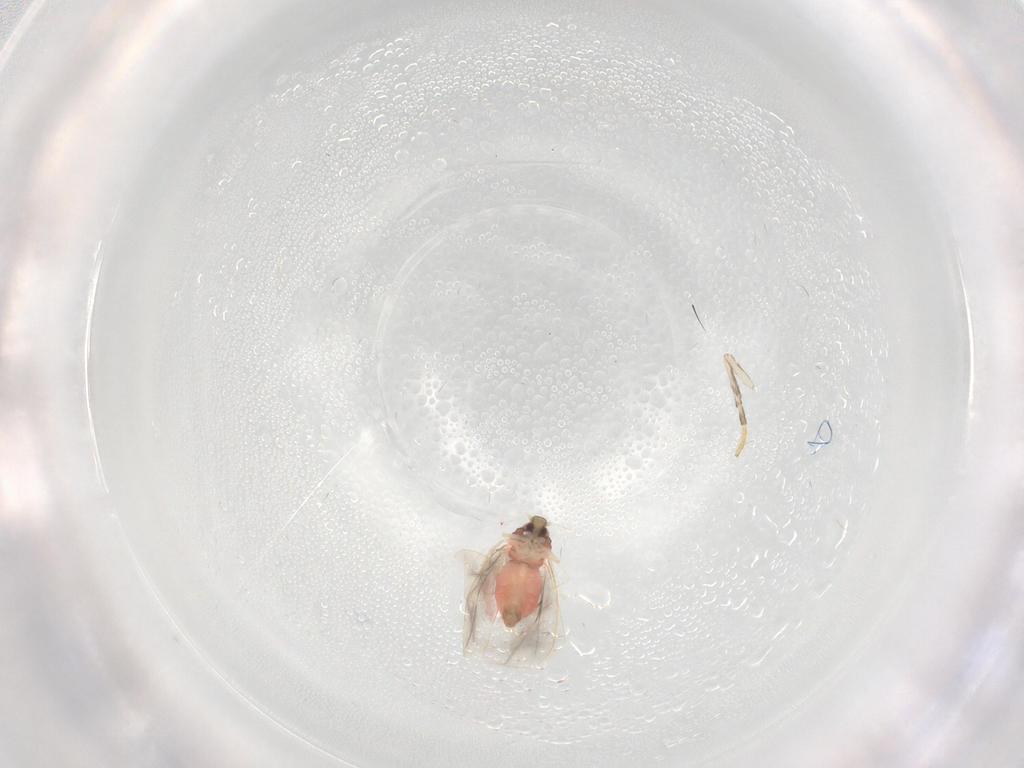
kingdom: Animalia
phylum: Arthropoda
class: Insecta
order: Hemiptera
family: Aleyrodidae
